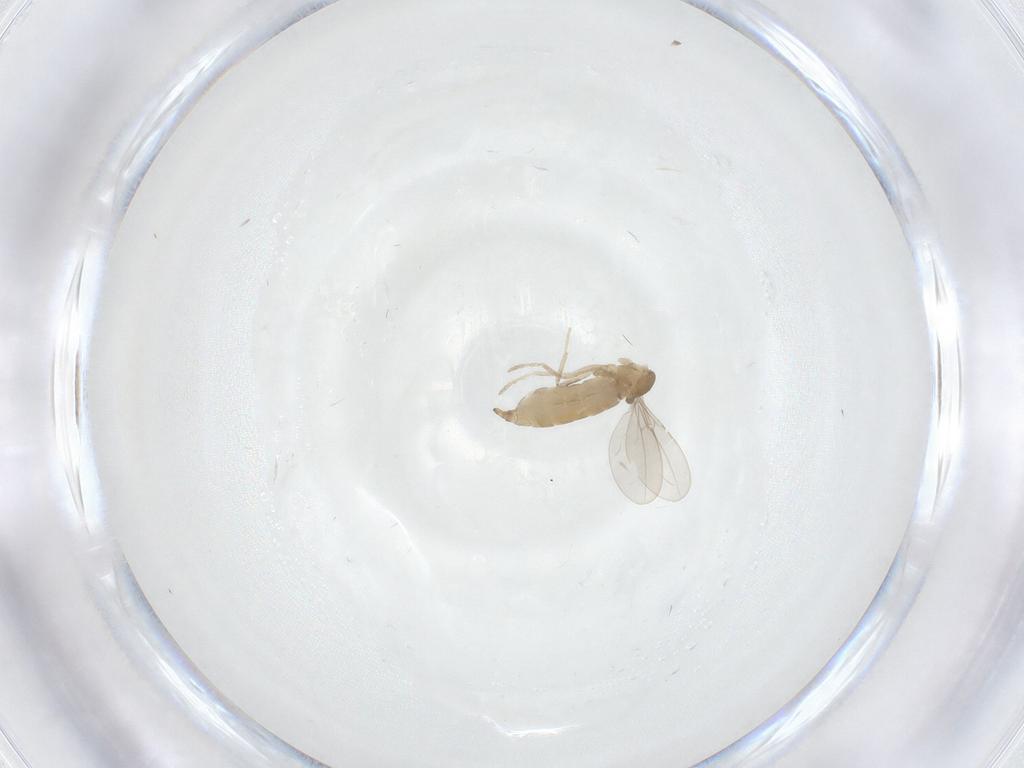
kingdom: Animalia
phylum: Arthropoda
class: Insecta
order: Diptera
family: Cecidomyiidae
